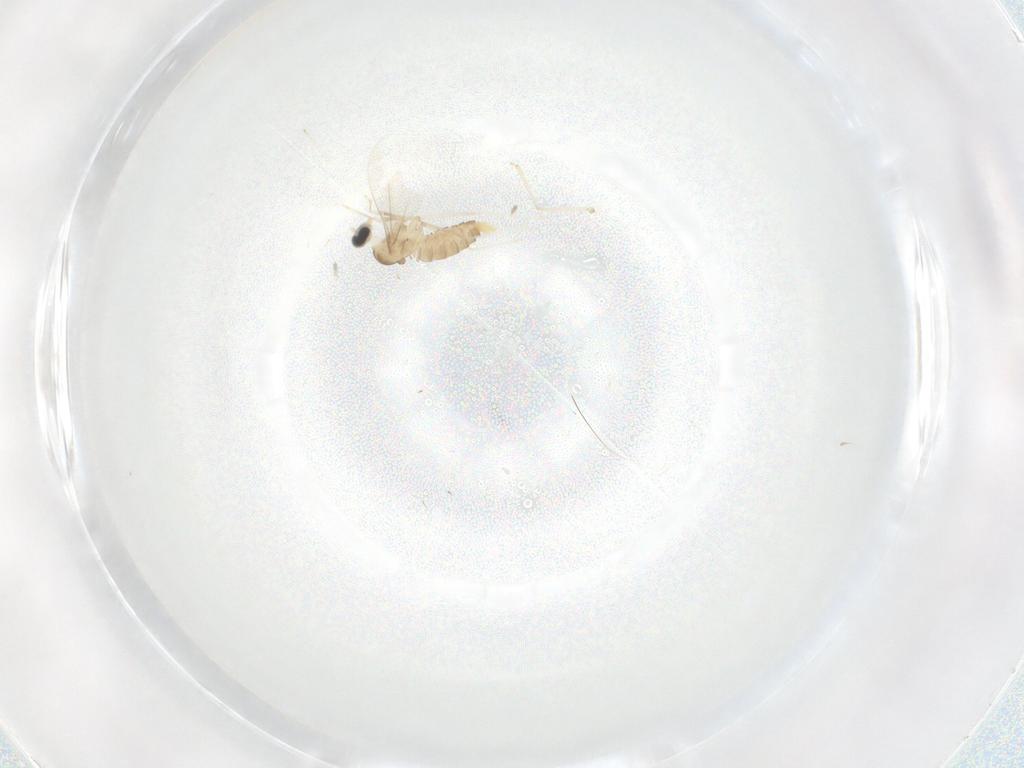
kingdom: Animalia
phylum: Arthropoda
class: Insecta
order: Diptera
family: Cecidomyiidae
